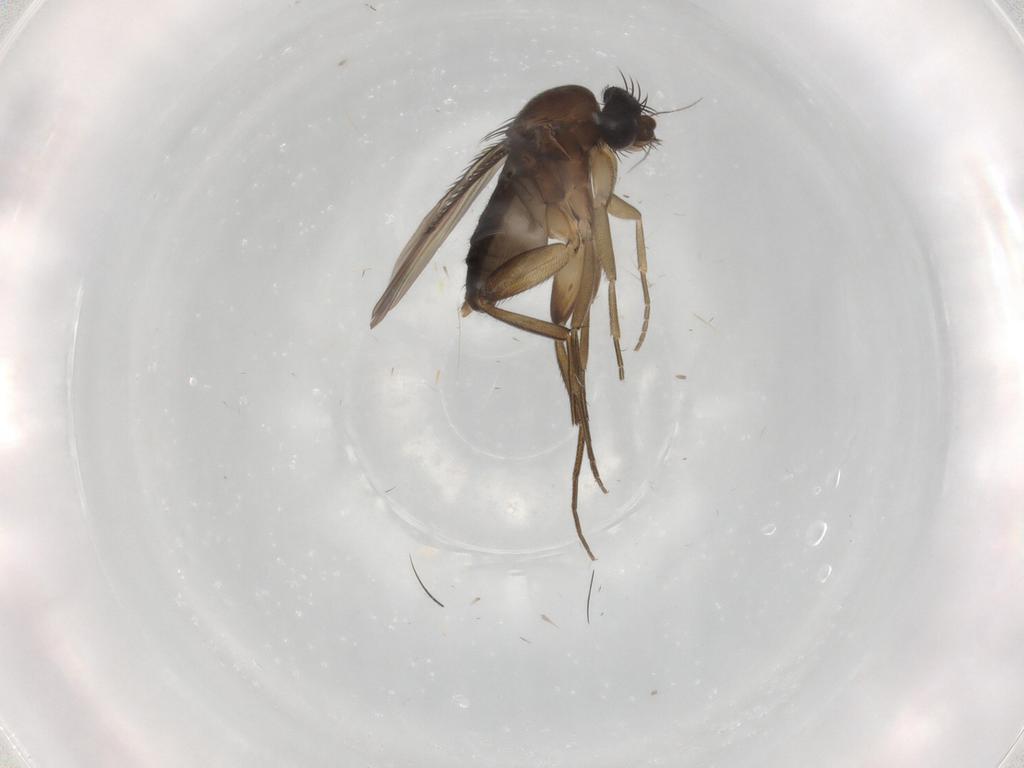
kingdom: Animalia
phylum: Arthropoda
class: Insecta
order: Diptera
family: Phoridae
